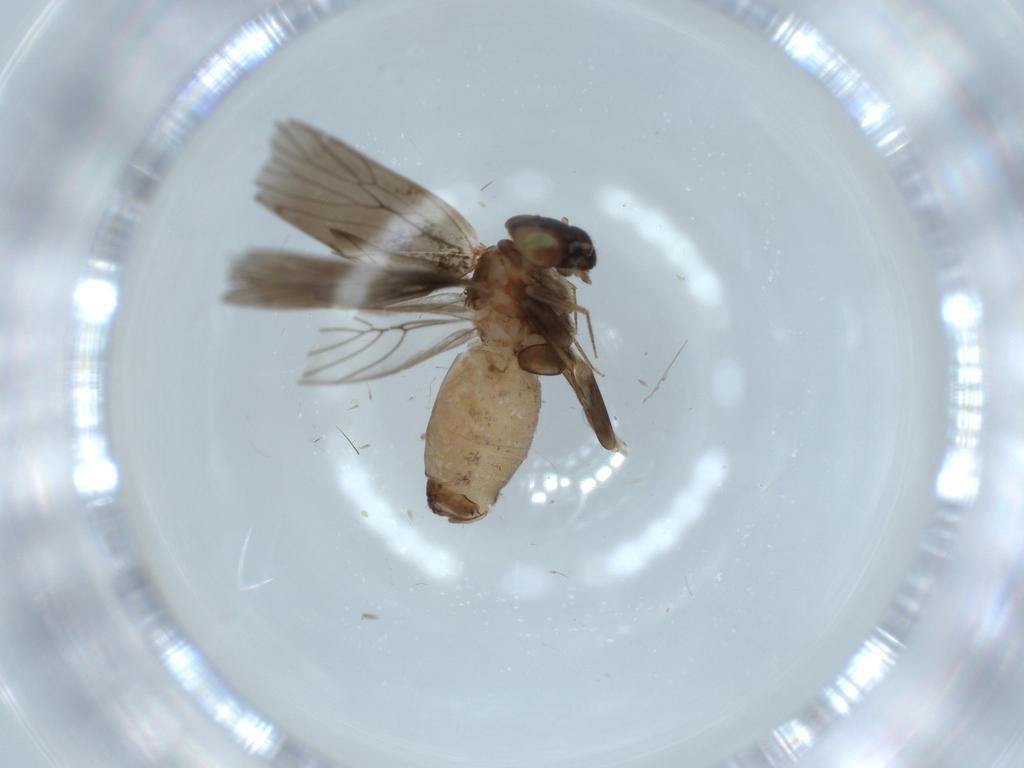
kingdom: Animalia
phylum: Arthropoda
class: Insecta
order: Psocodea
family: Lepidopsocidae
